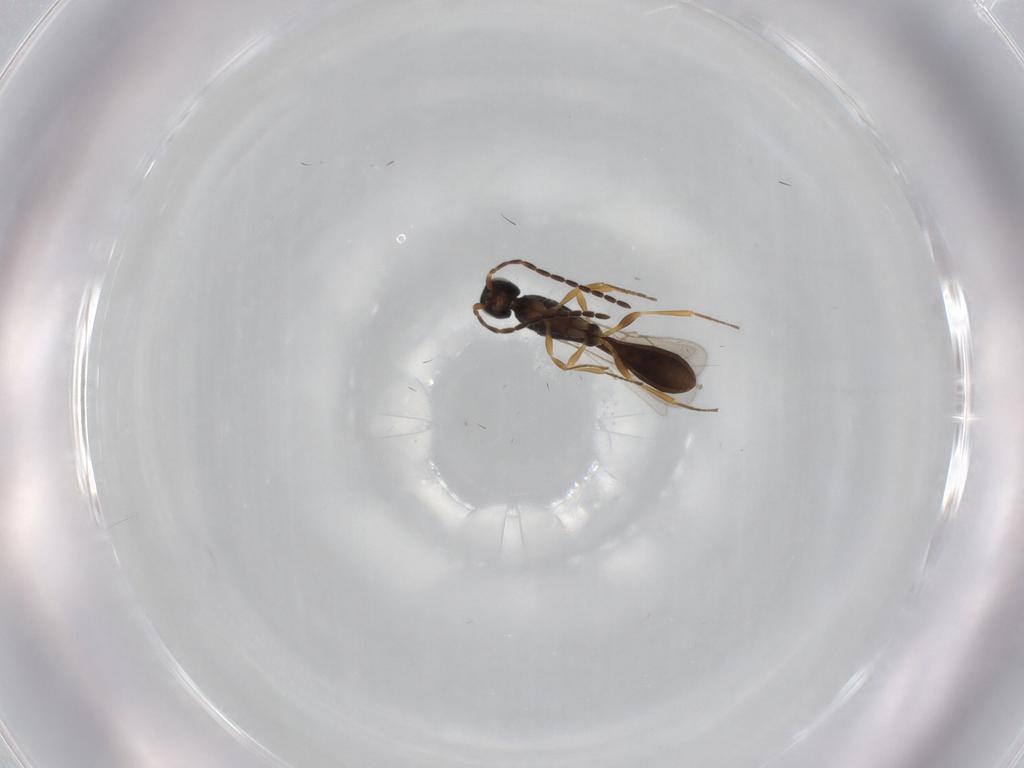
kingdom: Animalia
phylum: Arthropoda
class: Insecta
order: Hymenoptera
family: Scelionidae
